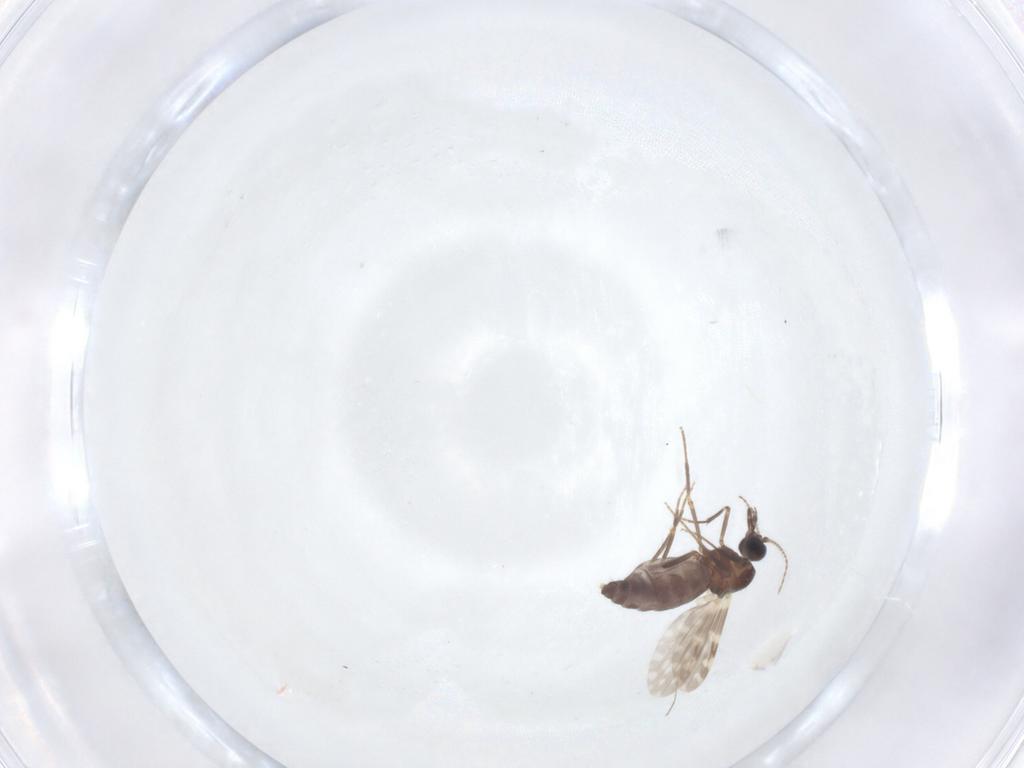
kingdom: Animalia
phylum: Arthropoda
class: Insecta
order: Diptera
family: Ceratopogonidae
